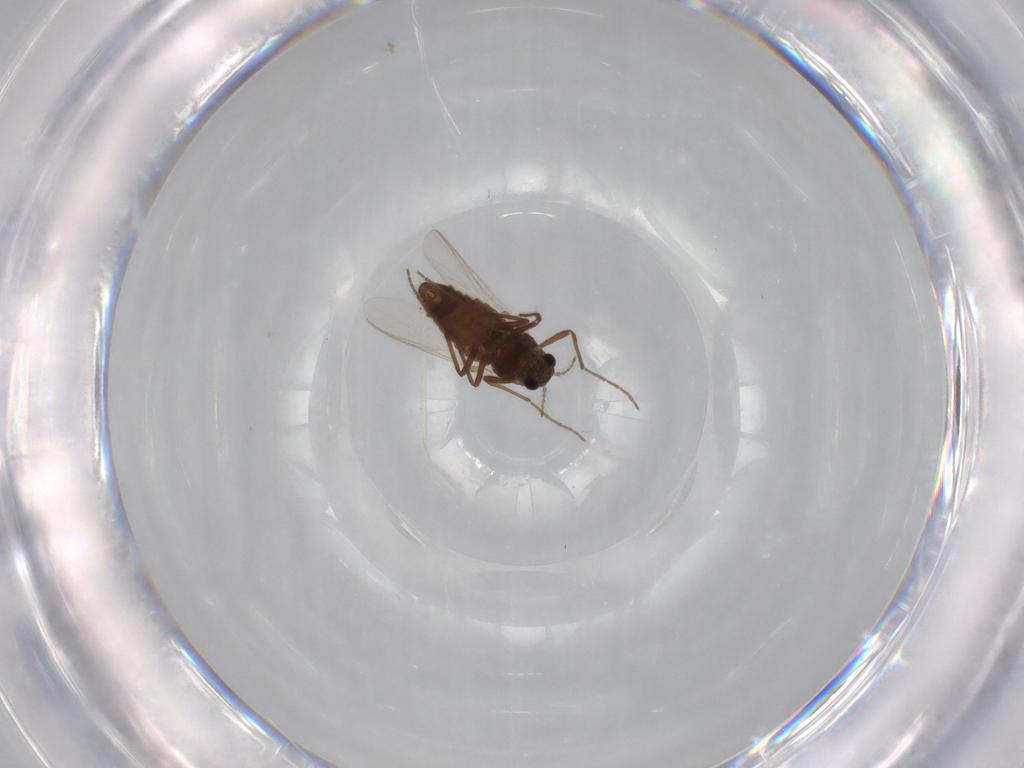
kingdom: Animalia
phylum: Arthropoda
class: Insecta
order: Diptera
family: Chironomidae
